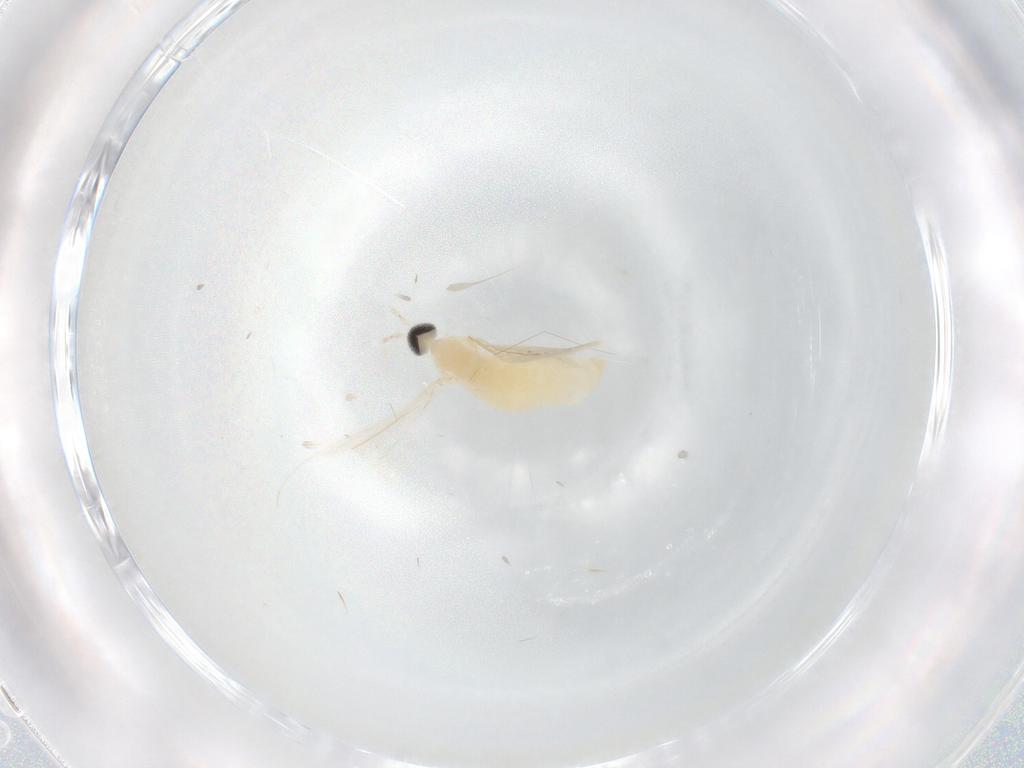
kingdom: Animalia
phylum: Arthropoda
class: Insecta
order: Diptera
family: Cecidomyiidae
